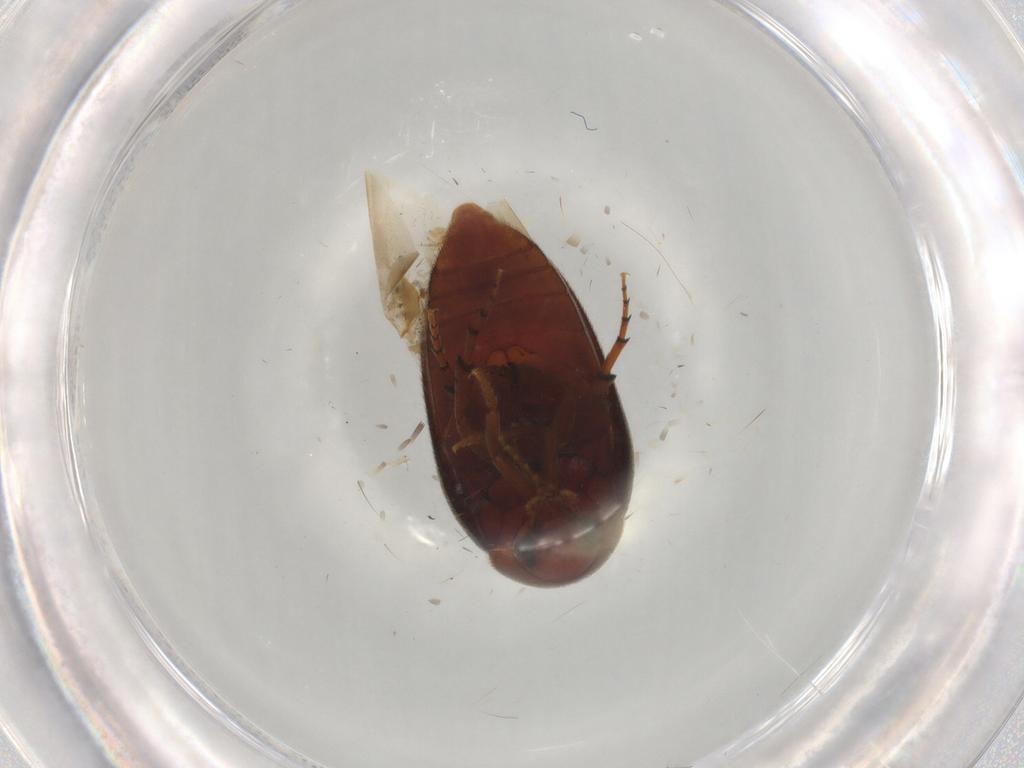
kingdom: Animalia
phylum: Arthropoda
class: Insecta
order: Coleoptera
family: Eucinetidae
